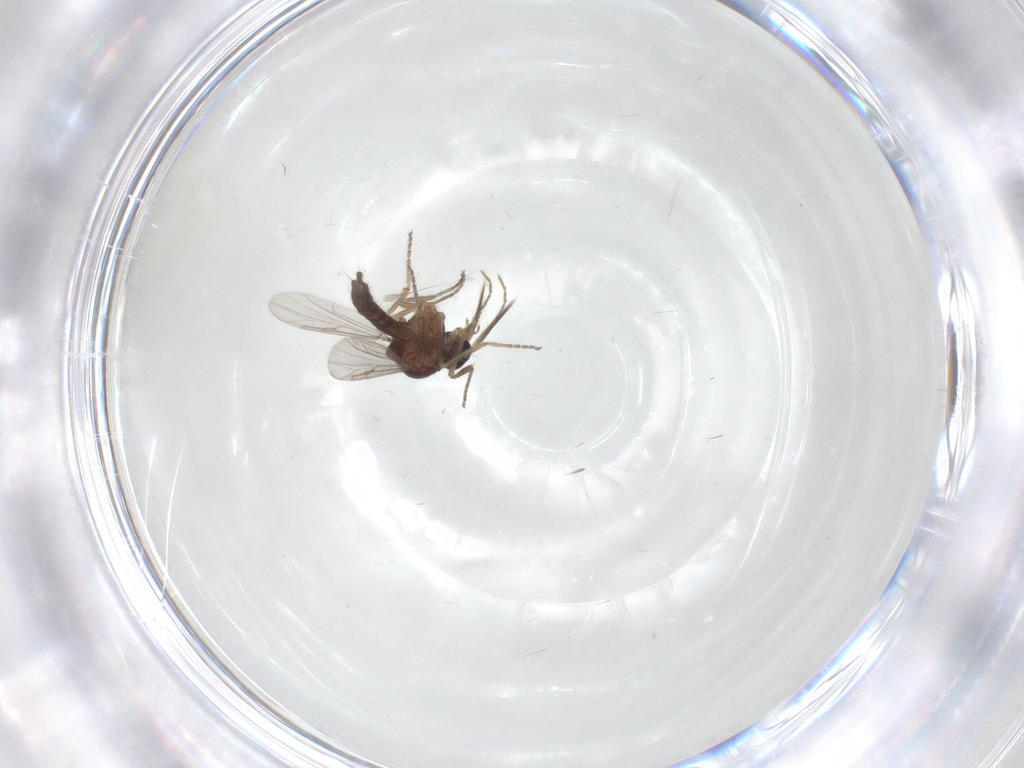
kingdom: Animalia
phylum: Arthropoda
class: Insecta
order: Diptera
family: Ceratopogonidae
